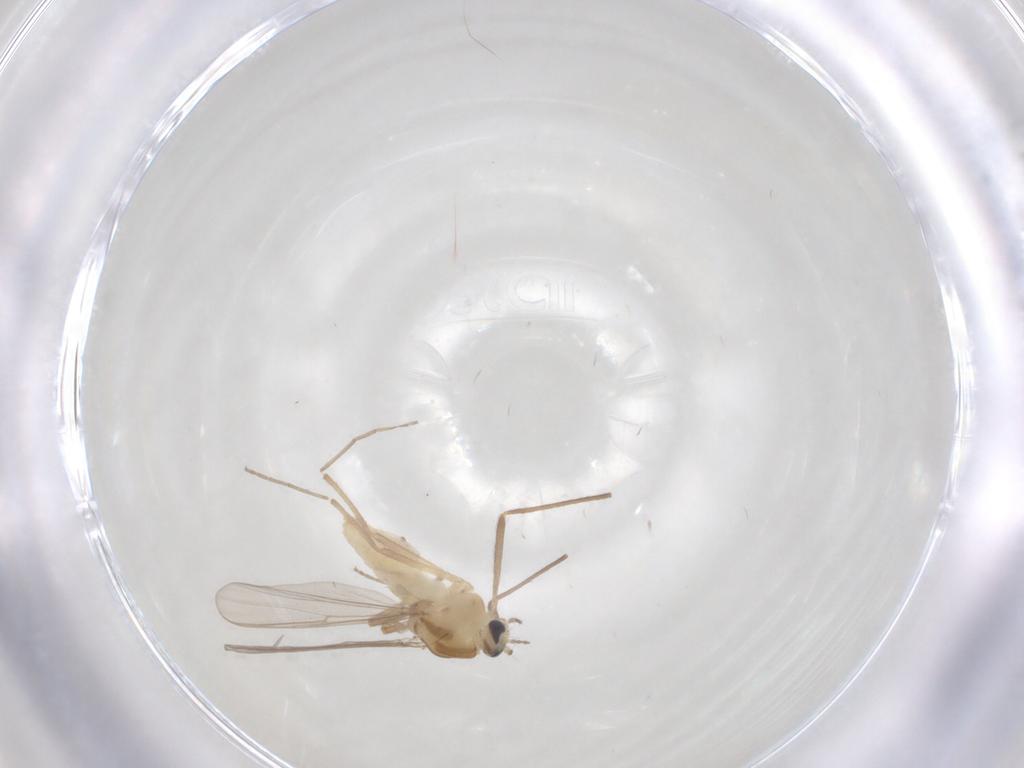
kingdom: Animalia
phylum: Arthropoda
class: Insecta
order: Diptera
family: Chironomidae
